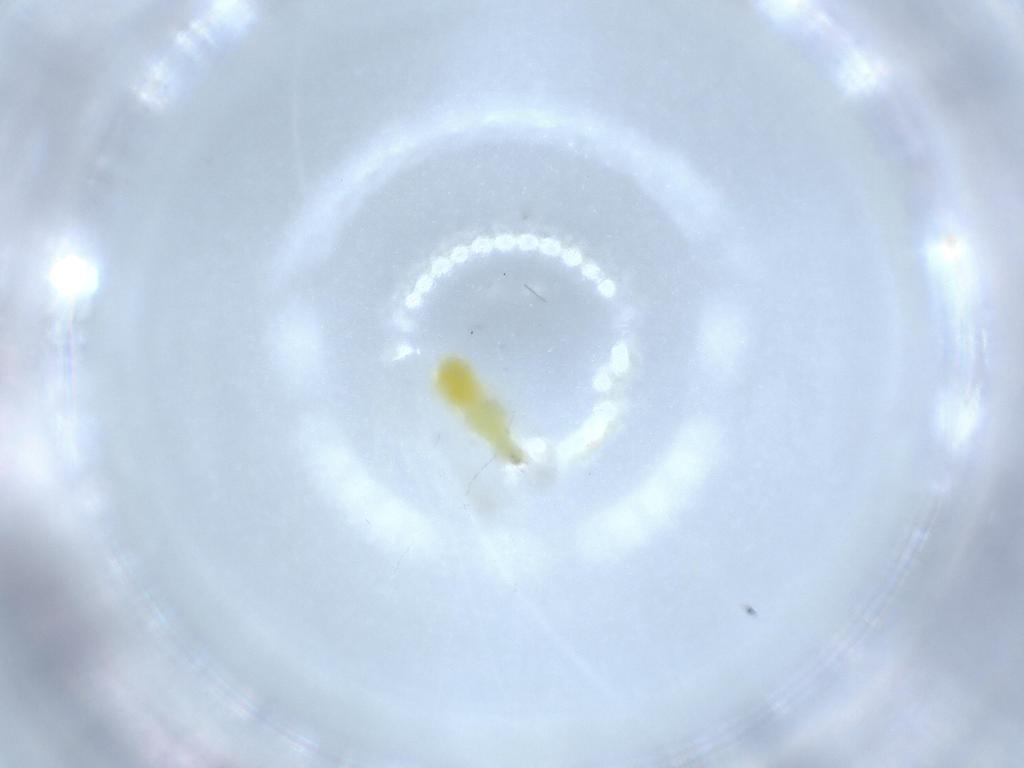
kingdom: Animalia
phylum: Arthropoda
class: Insecta
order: Hemiptera
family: Aleyrodidae
